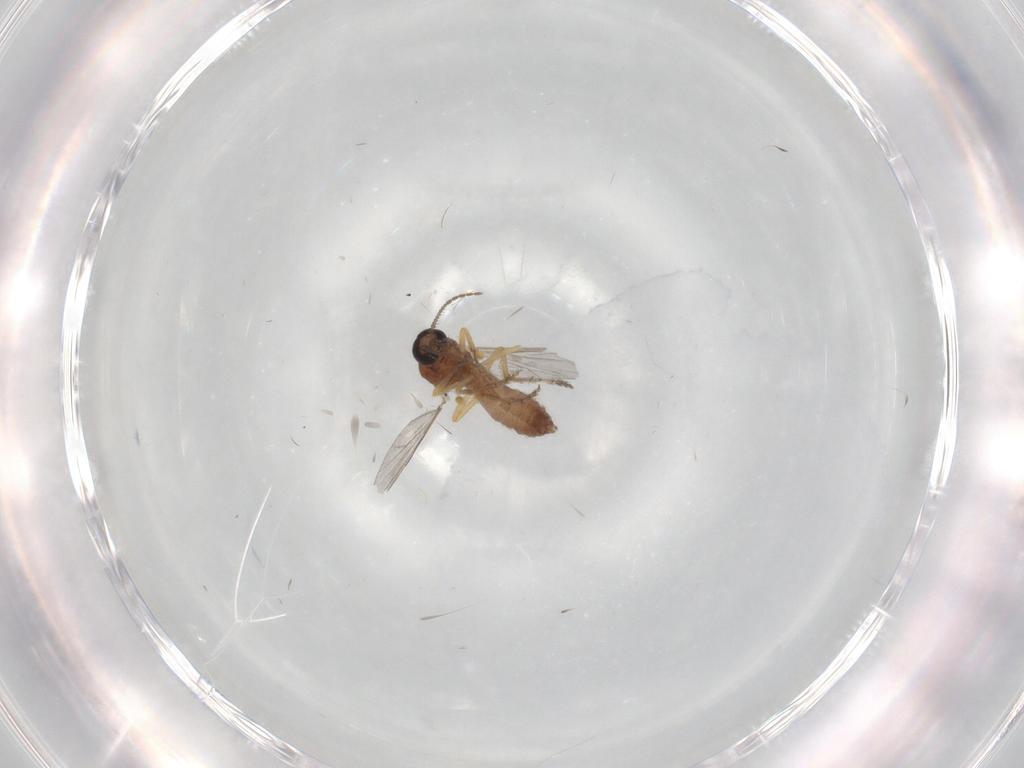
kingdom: Animalia
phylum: Arthropoda
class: Insecta
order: Diptera
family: Ceratopogonidae
